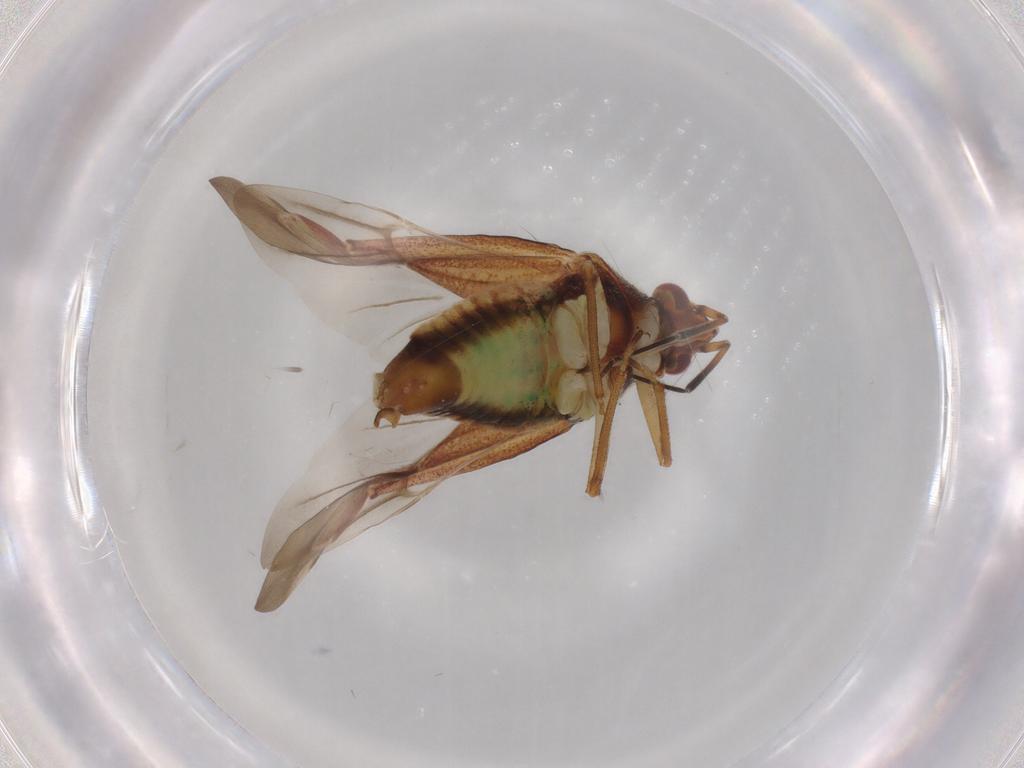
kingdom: Animalia
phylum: Arthropoda
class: Insecta
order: Hemiptera
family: Miridae
